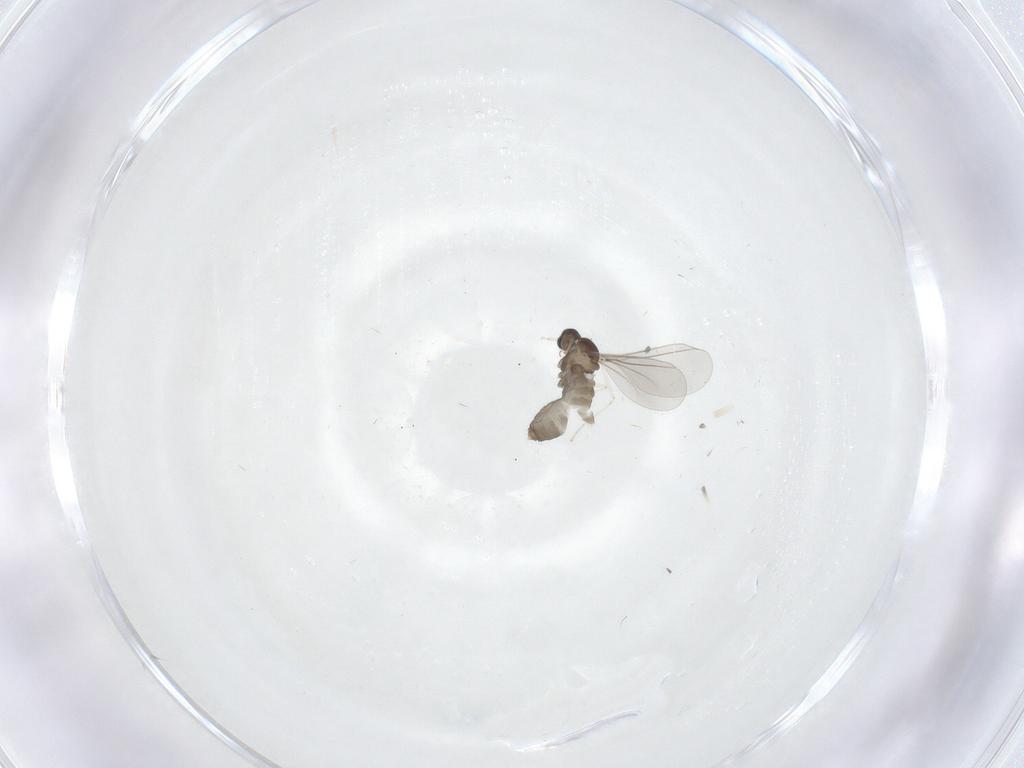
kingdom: Animalia
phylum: Arthropoda
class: Insecta
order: Diptera
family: Cecidomyiidae
